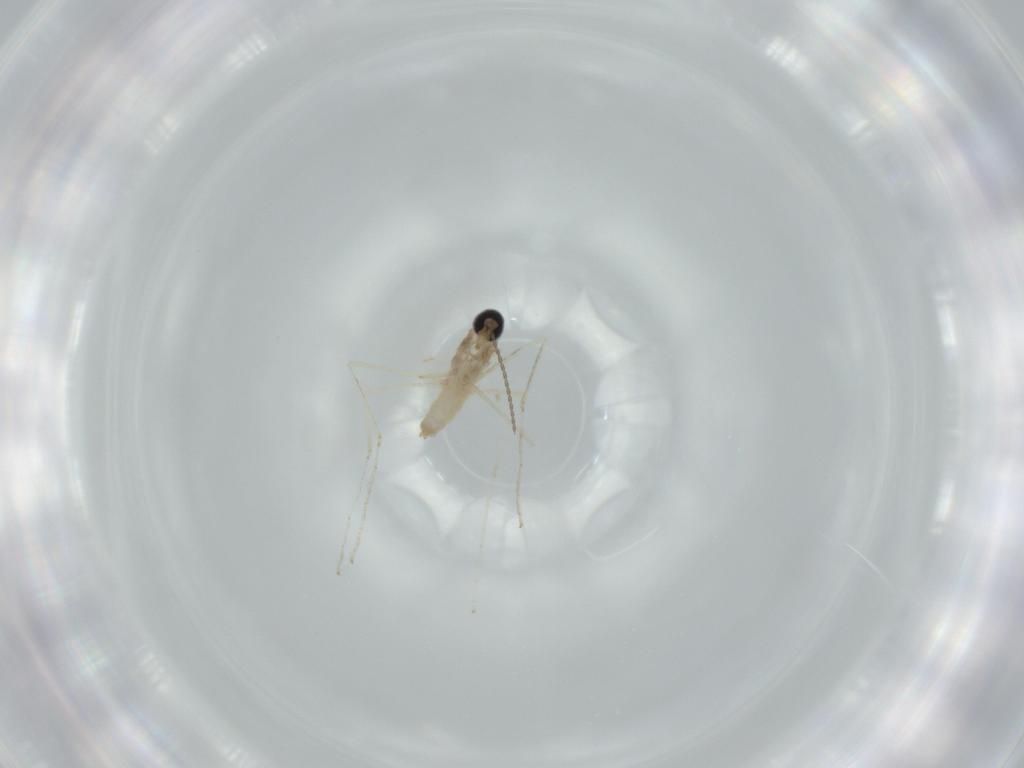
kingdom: Animalia
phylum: Arthropoda
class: Insecta
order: Diptera
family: Cecidomyiidae
